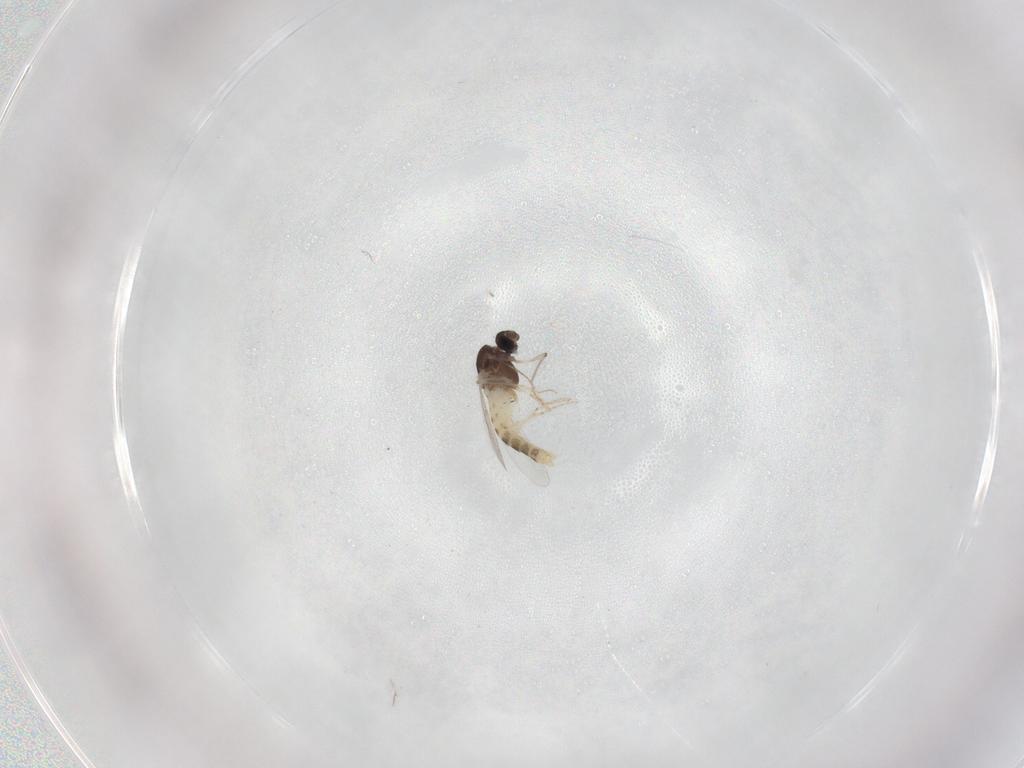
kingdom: Animalia
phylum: Arthropoda
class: Insecta
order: Diptera
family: Chironomidae
